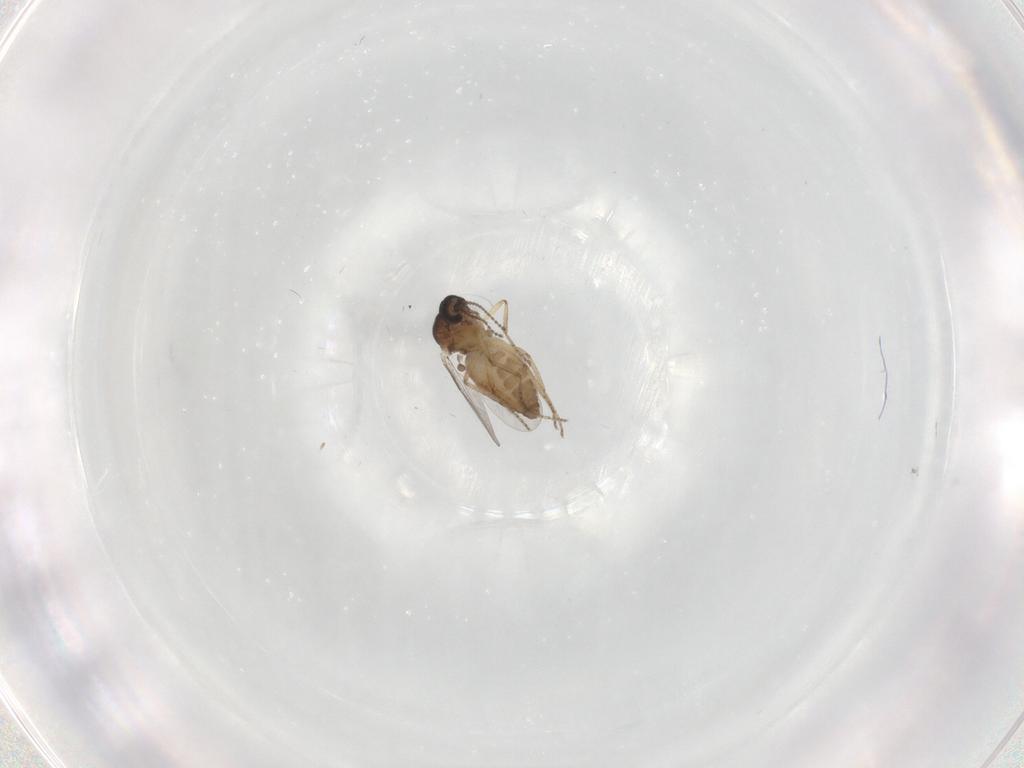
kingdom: Animalia
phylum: Arthropoda
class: Insecta
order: Diptera
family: Ceratopogonidae
